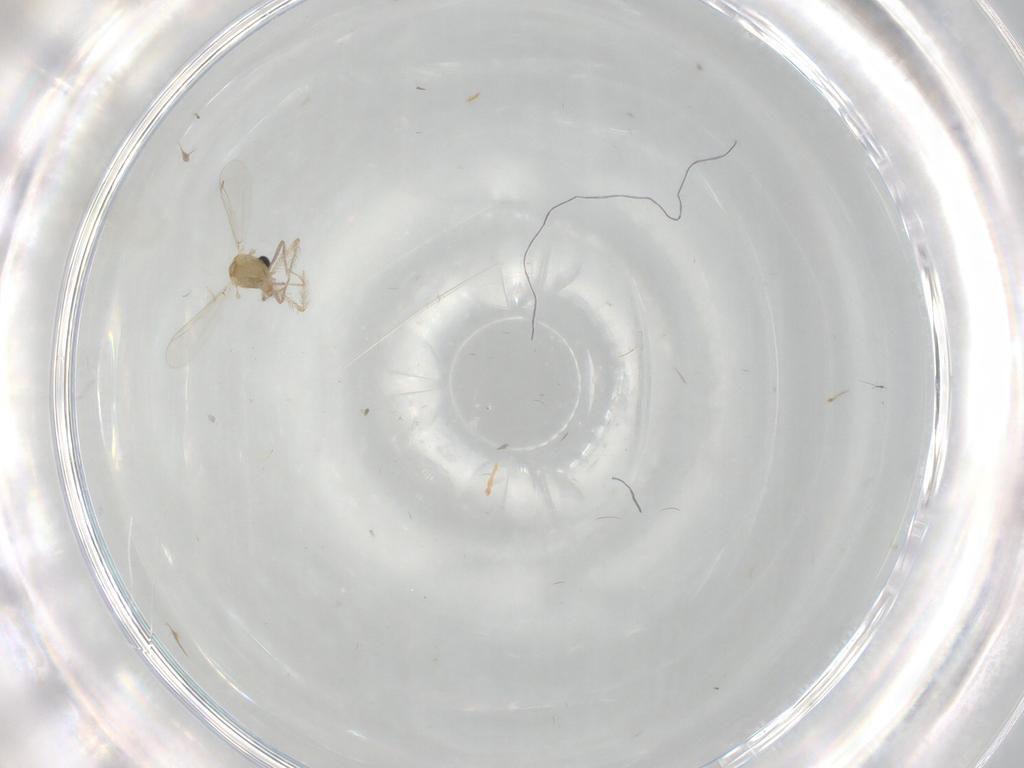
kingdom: Animalia
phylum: Arthropoda
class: Insecta
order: Diptera
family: Chironomidae
